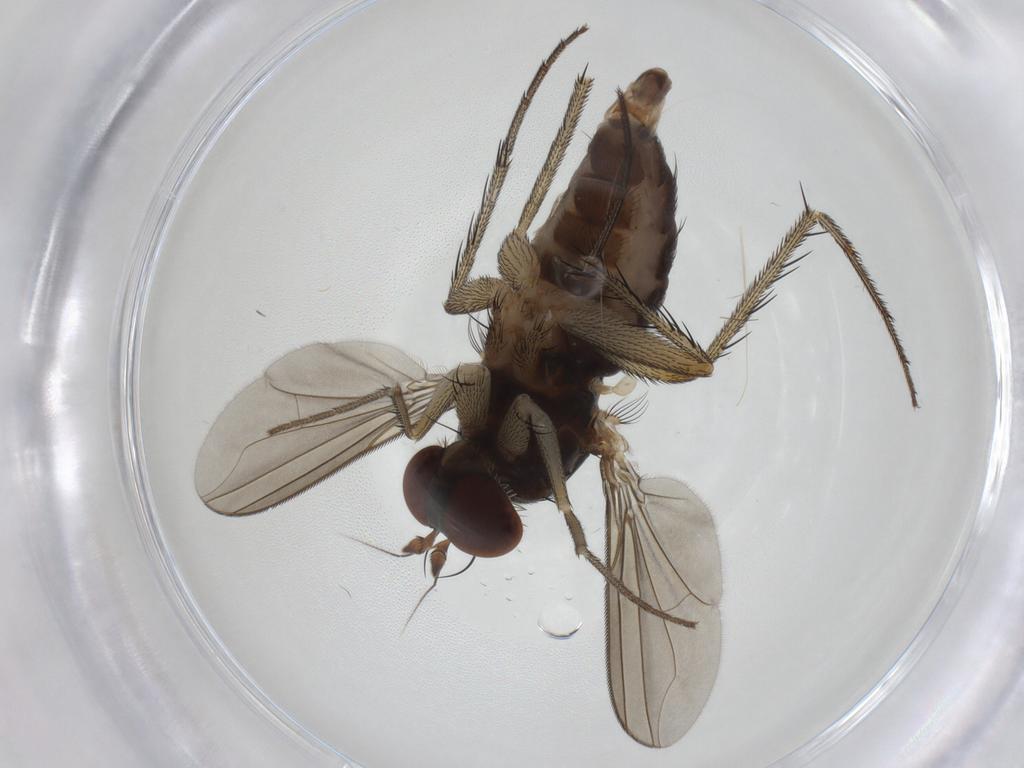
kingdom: Animalia
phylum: Arthropoda
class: Insecta
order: Diptera
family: Dolichopodidae
